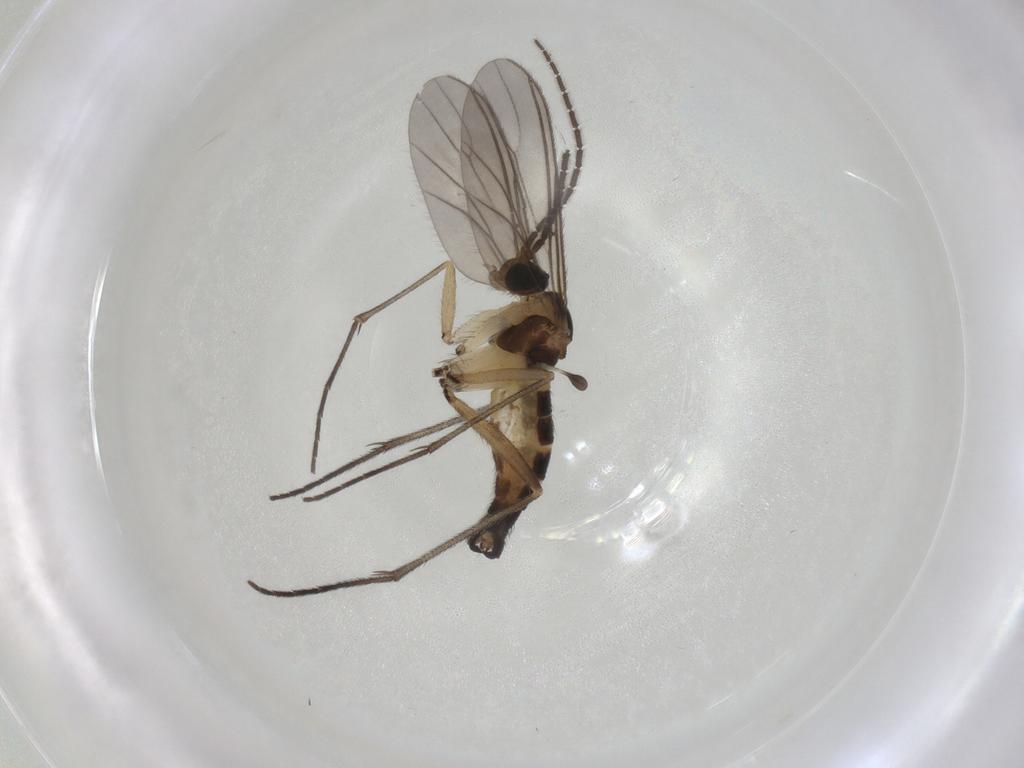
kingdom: Animalia
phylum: Arthropoda
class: Insecta
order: Diptera
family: Sciaridae
